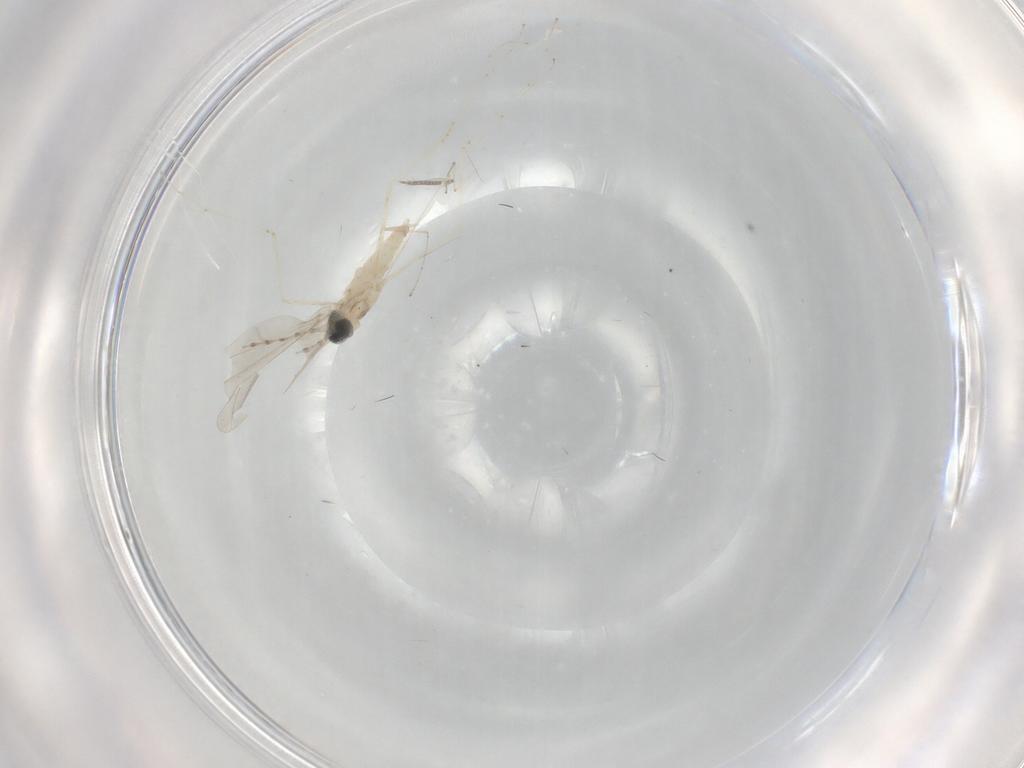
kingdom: Animalia
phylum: Arthropoda
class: Insecta
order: Diptera
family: Cecidomyiidae
